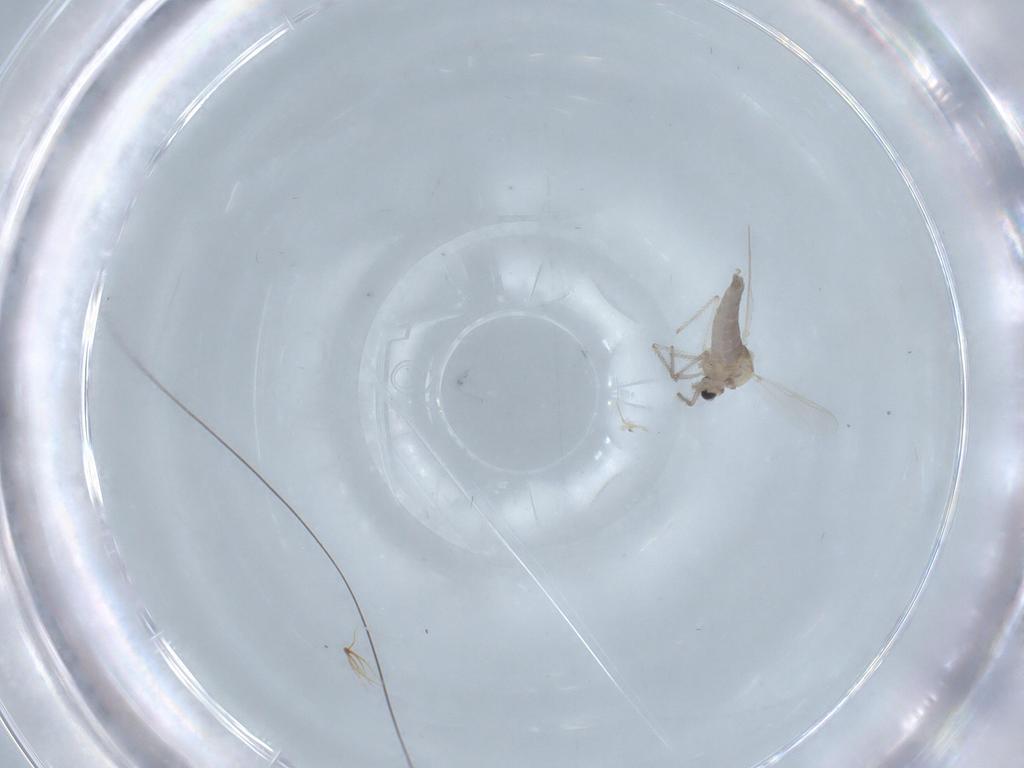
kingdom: Animalia
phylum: Arthropoda
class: Insecta
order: Diptera
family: Chironomidae
